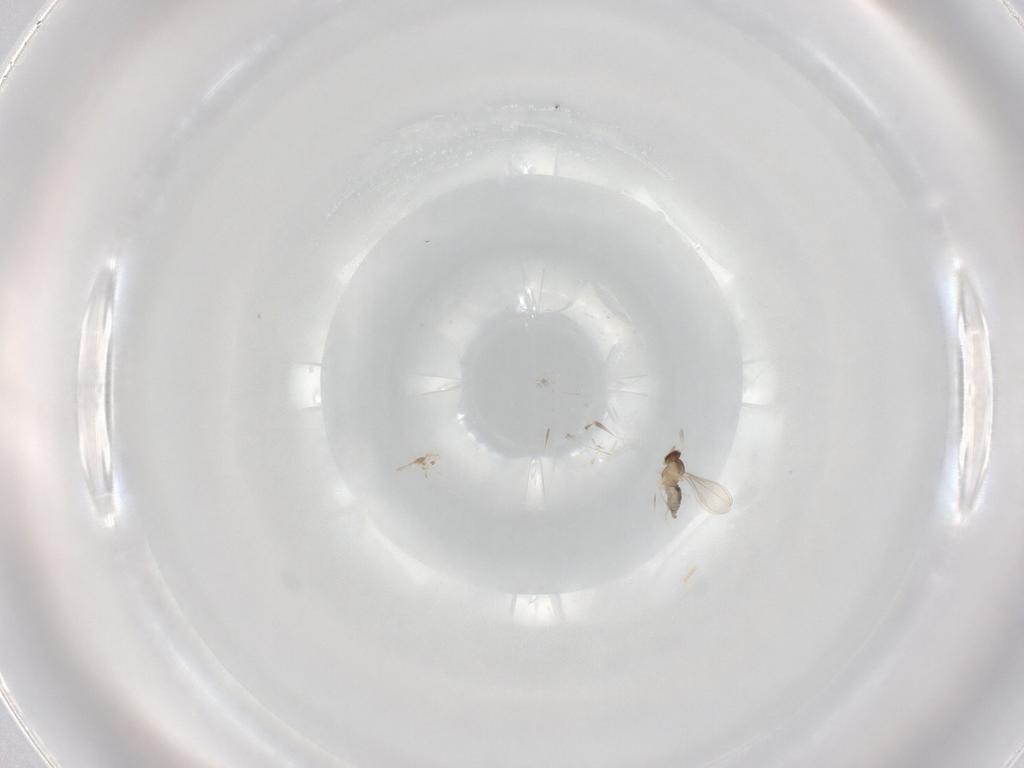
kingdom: Animalia
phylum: Arthropoda
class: Insecta
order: Diptera
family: Cecidomyiidae
